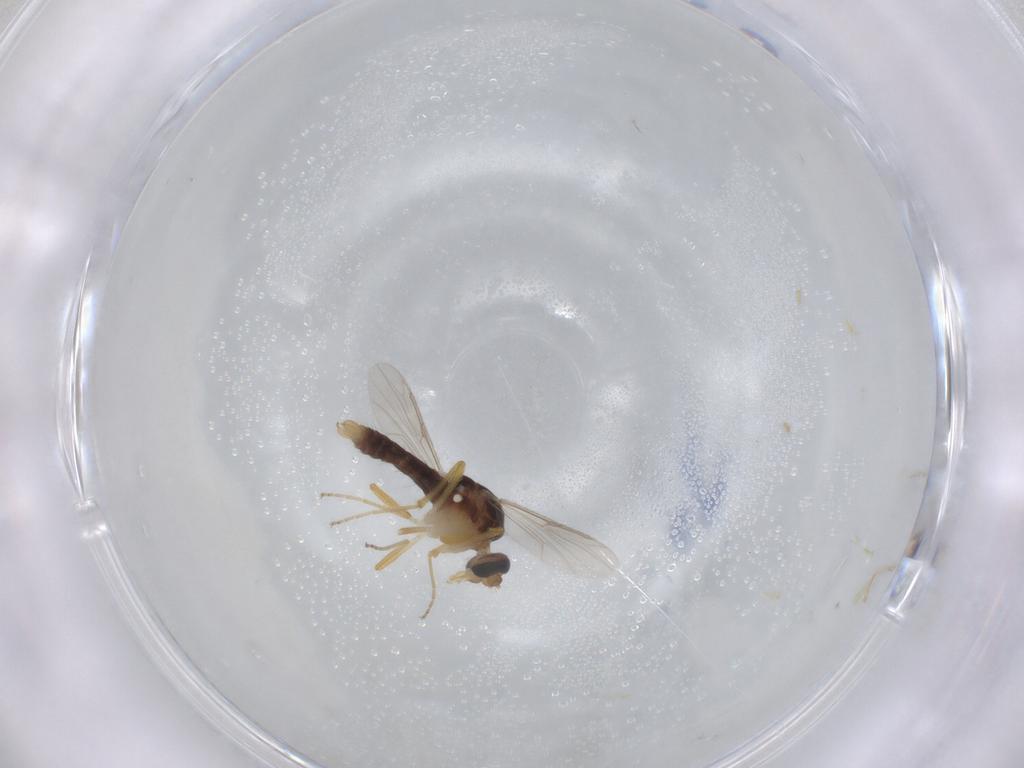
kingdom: Animalia
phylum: Arthropoda
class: Insecta
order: Diptera
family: Ceratopogonidae
